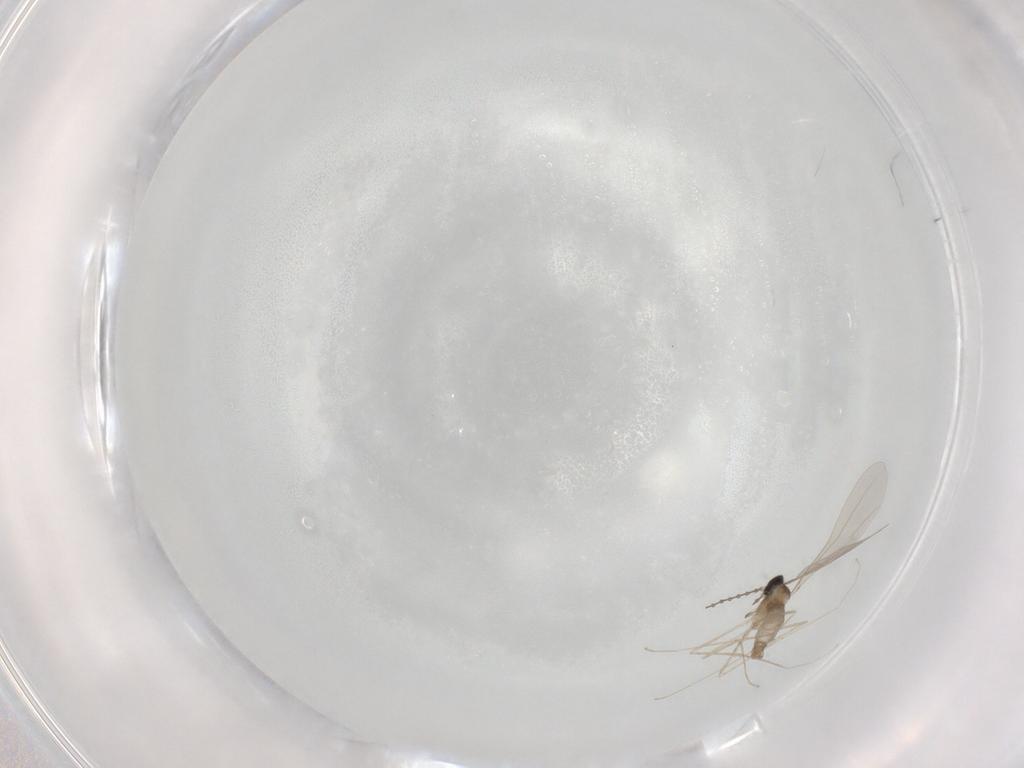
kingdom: Animalia
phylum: Arthropoda
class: Insecta
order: Diptera
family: Cecidomyiidae
